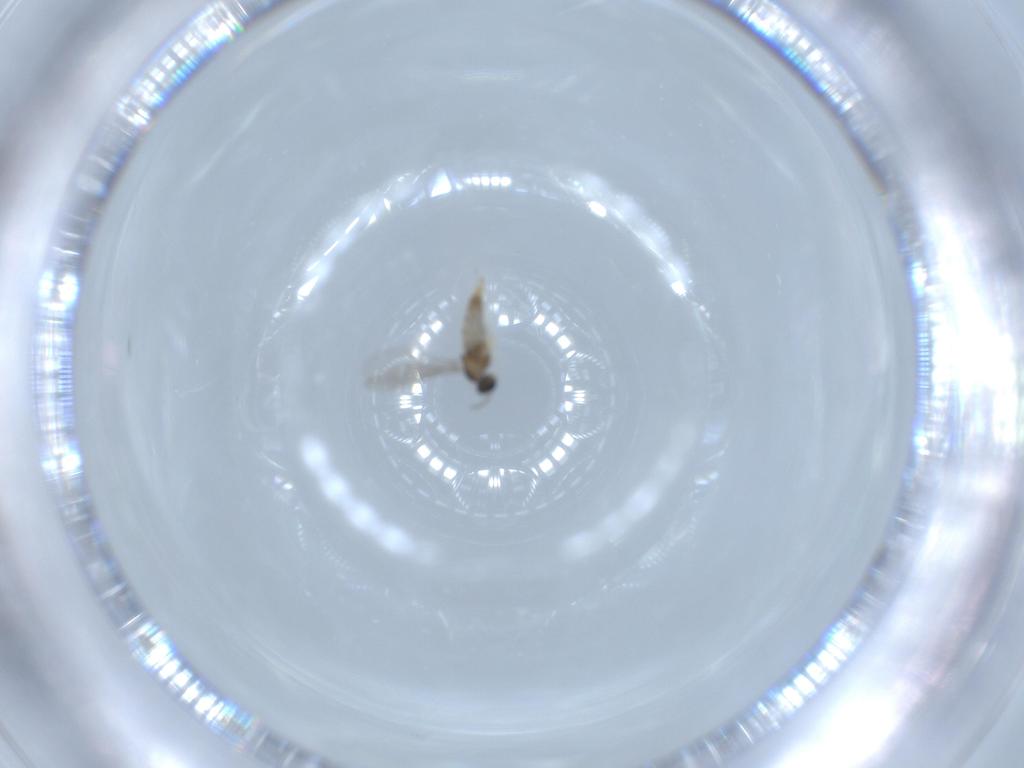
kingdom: Animalia
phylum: Arthropoda
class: Insecta
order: Diptera
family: Cecidomyiidae
